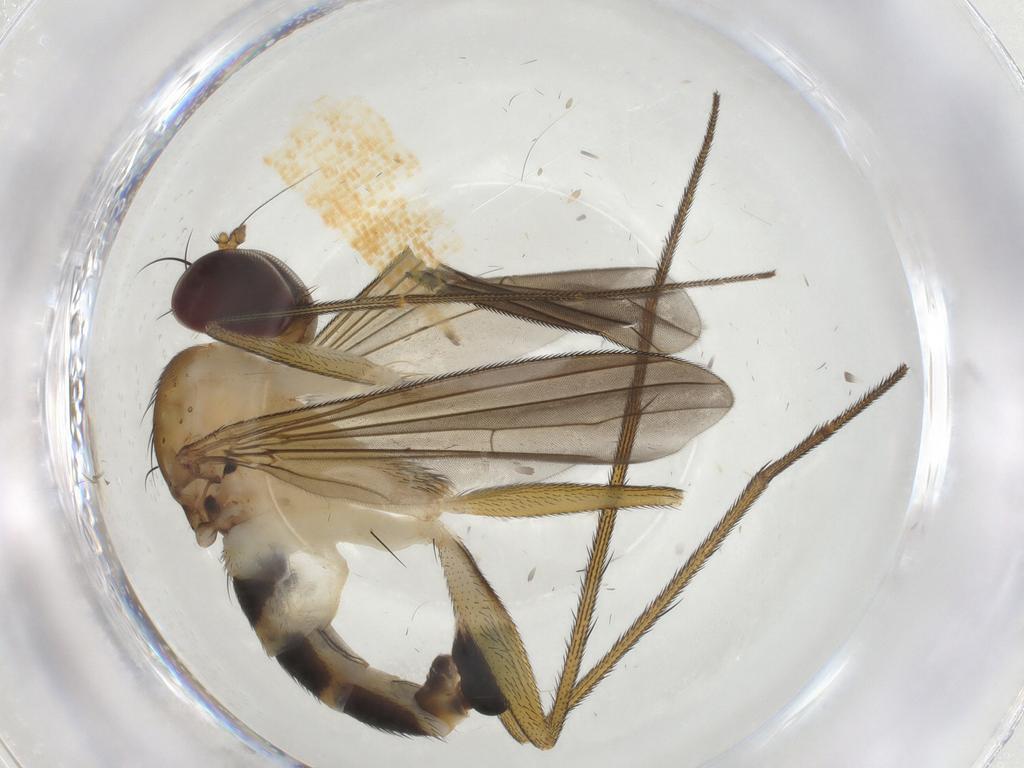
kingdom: Animalia
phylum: Arthropoda
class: Insecta
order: Diptera
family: Dolichopodidae
